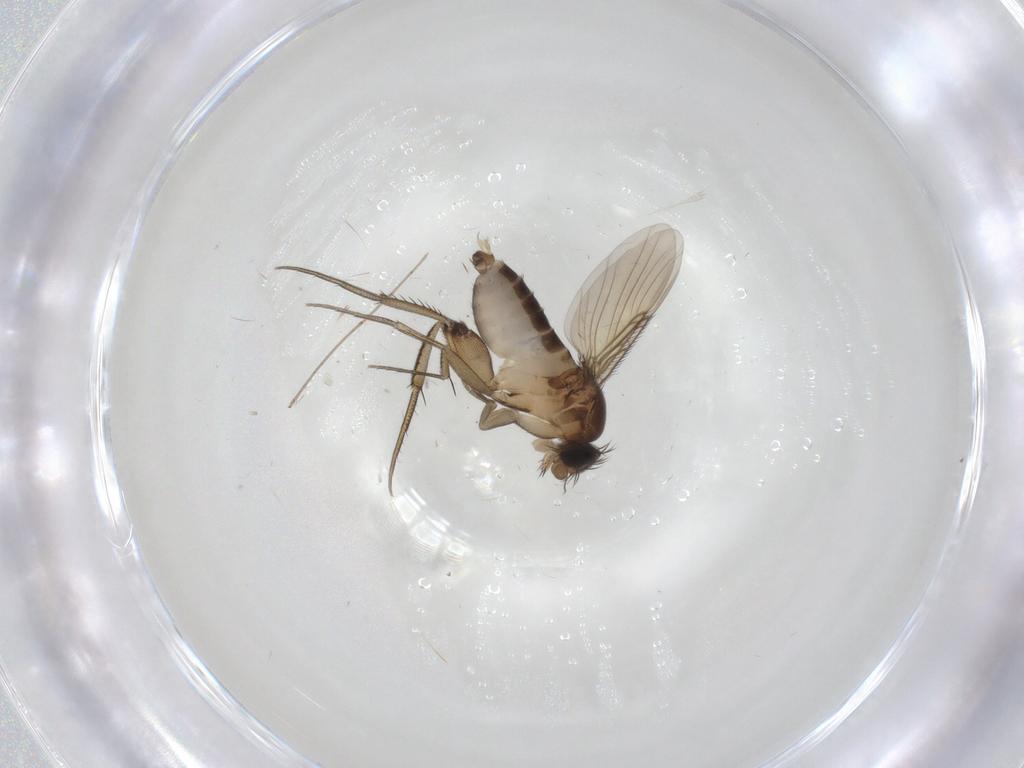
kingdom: Animalia
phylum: Arthropoda
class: Insecta
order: Diptera
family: Phoridae
